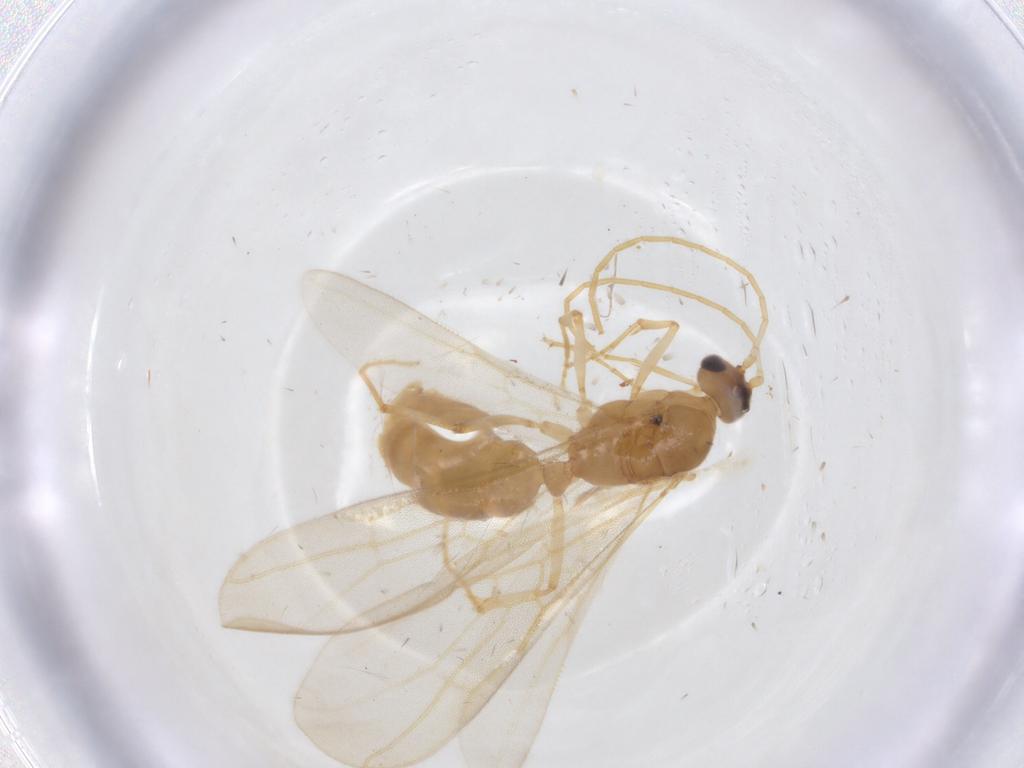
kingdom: Animalia
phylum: Arthropoda
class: Insecta
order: Hymenoptera
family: Formicidae
